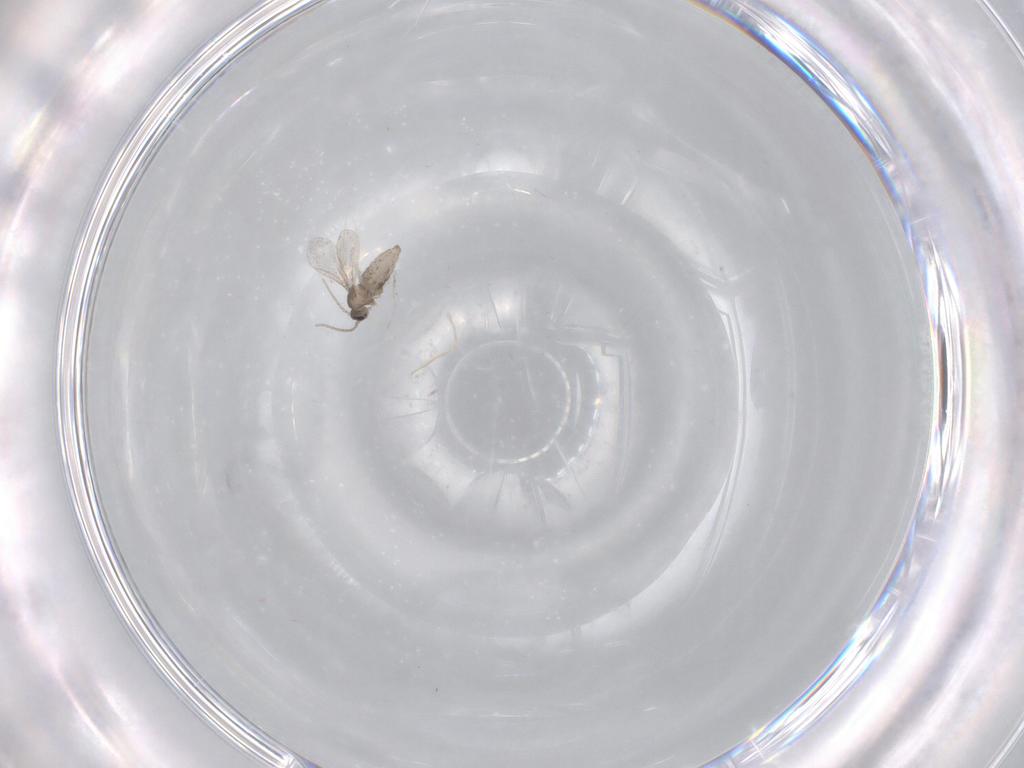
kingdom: Animalia
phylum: Arthropoda
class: Insecta
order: Diptera
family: Cecidomyiidae
